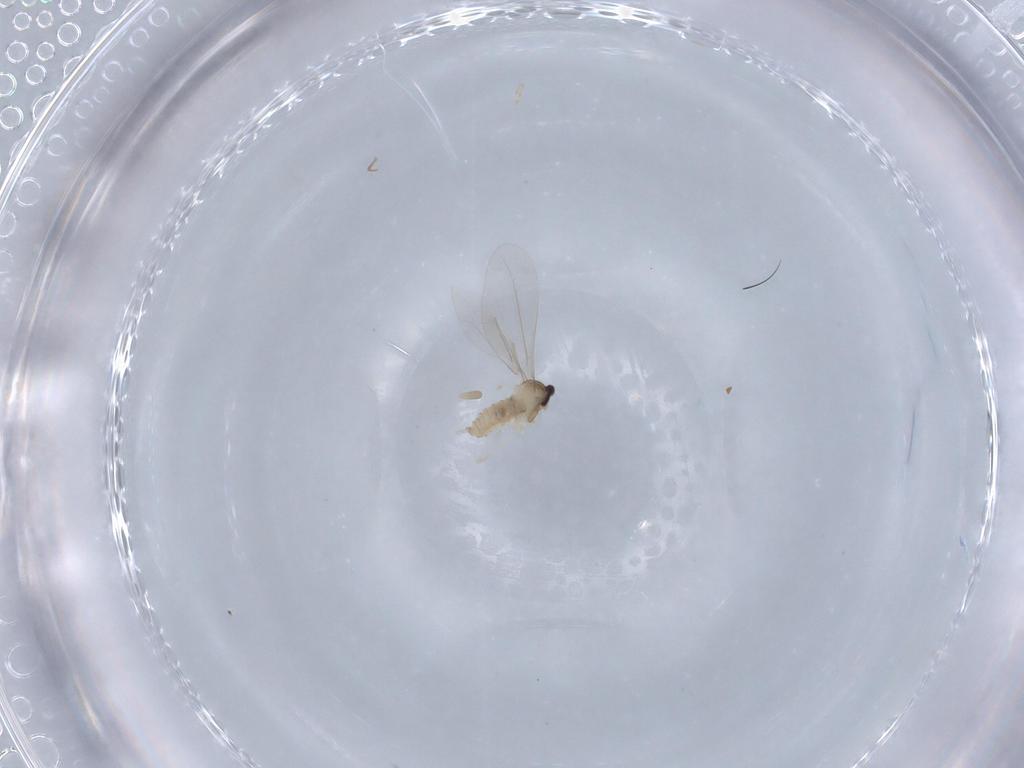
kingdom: Animalia
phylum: Arthropoda
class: Insecta
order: Diptera
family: Cecidomyiidae
